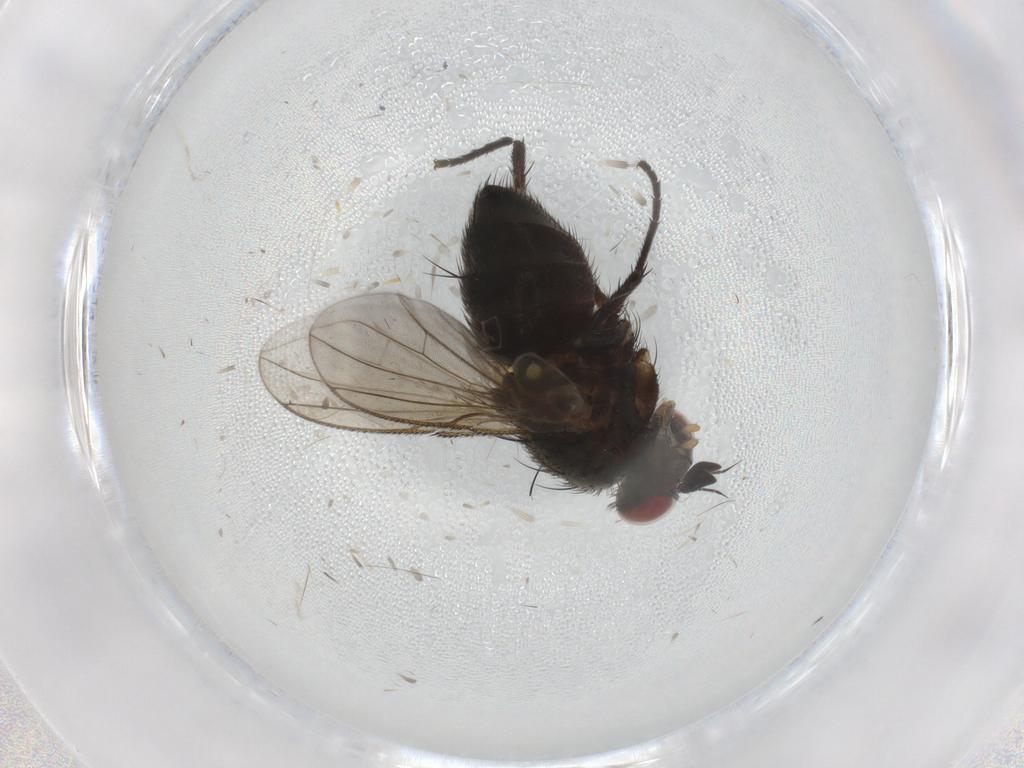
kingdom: Animalia
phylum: Arthropoda
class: Insecta
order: Diptera
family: Tachinidae
